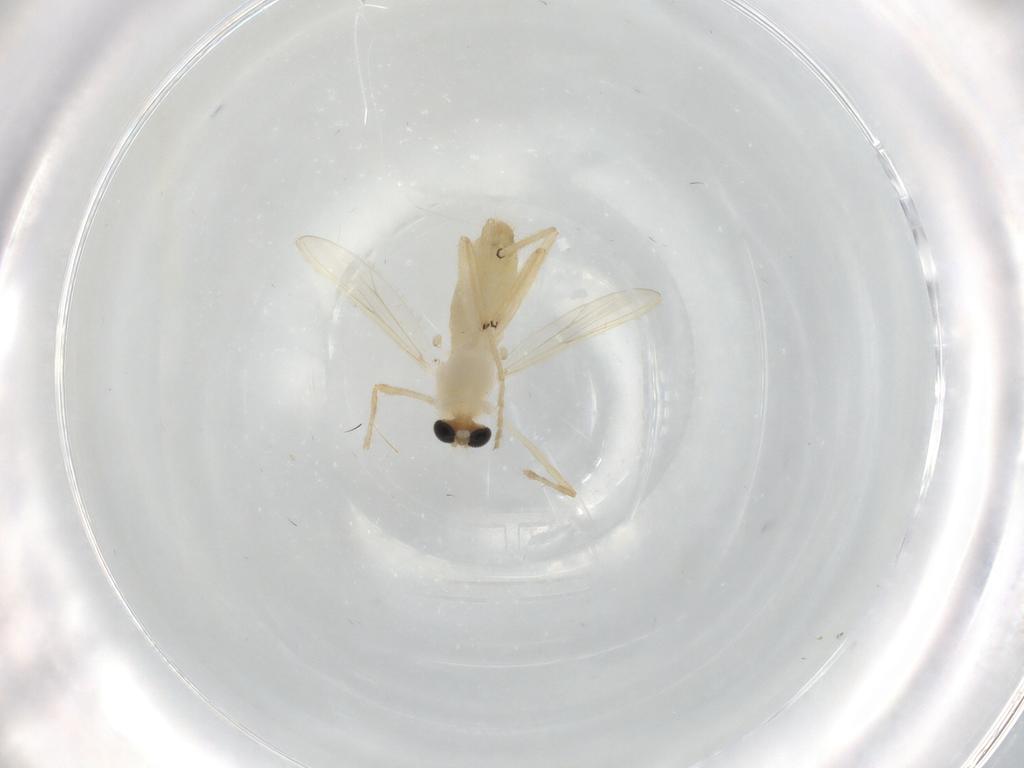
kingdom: Animalia
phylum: Arthropoda
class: Insecta
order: Diptera
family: Chironomidae
